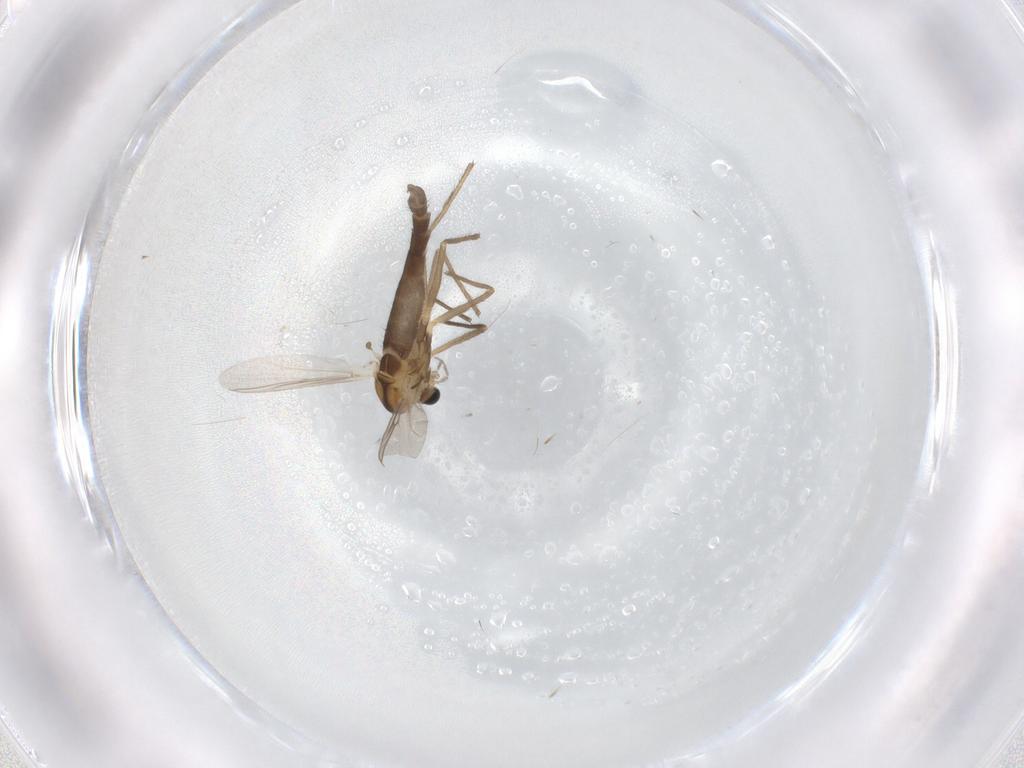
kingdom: Animalia
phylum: Arthropoda
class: Insecta
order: Diptera
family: Chironomidae
